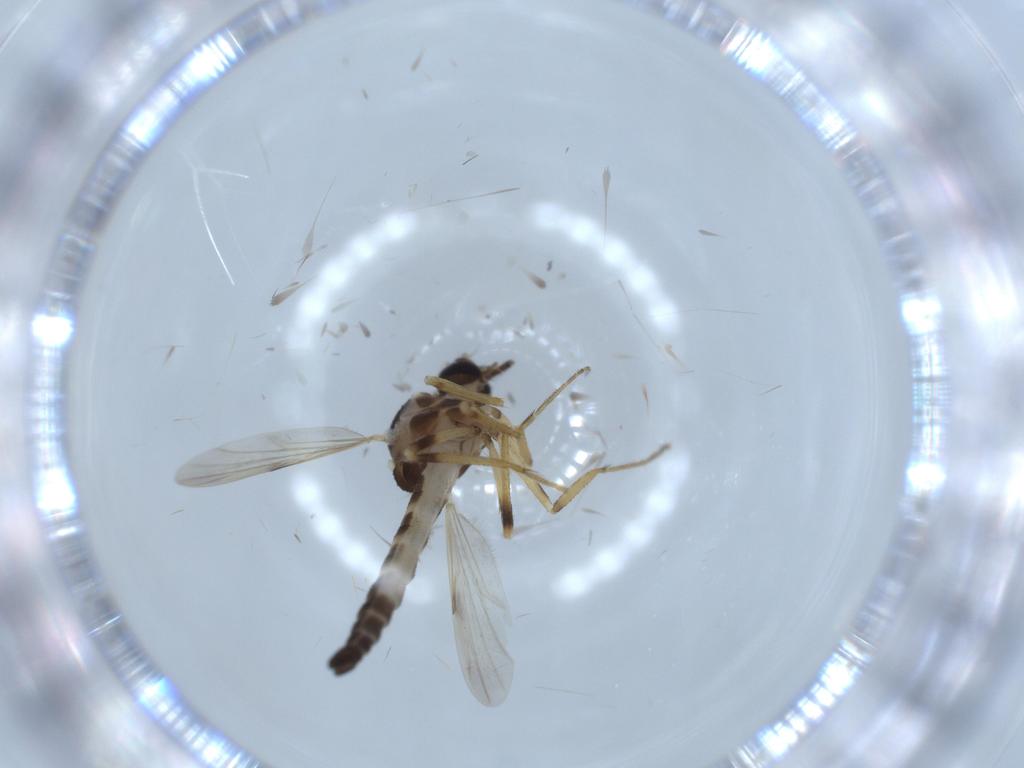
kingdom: Animalia
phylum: Arthropoda
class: Insecta
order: Diptera
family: Ceratopogonidae
